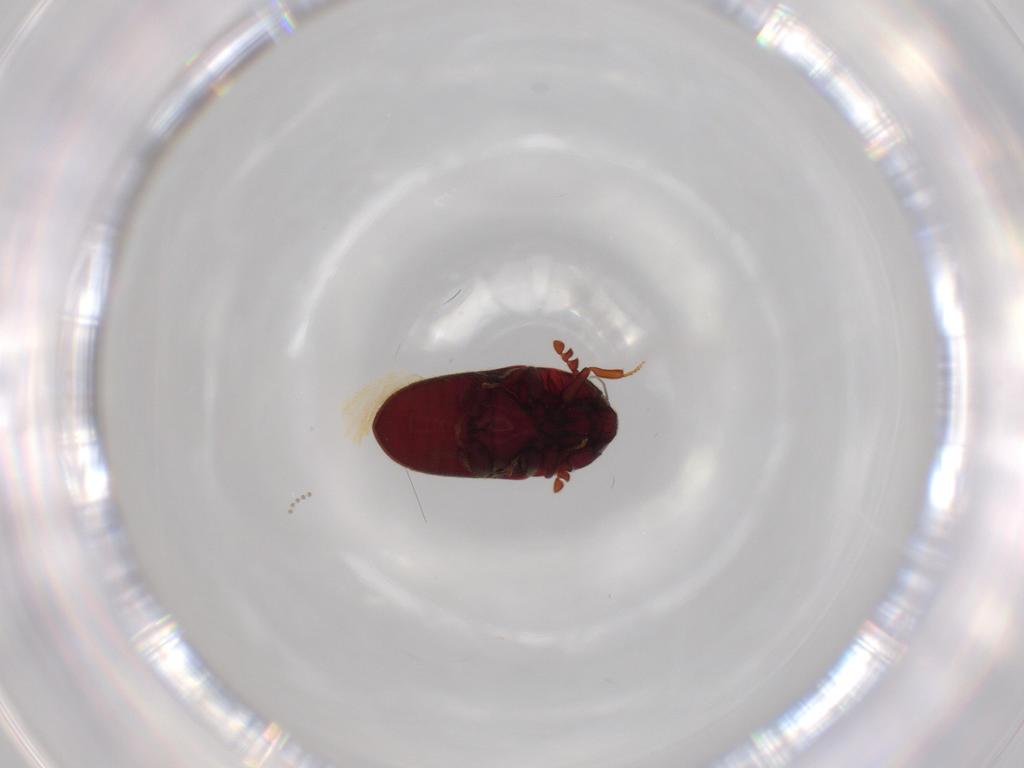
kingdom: Animalia
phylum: Arthropoda
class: Insecta
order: Coleoptera
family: Throscidae
